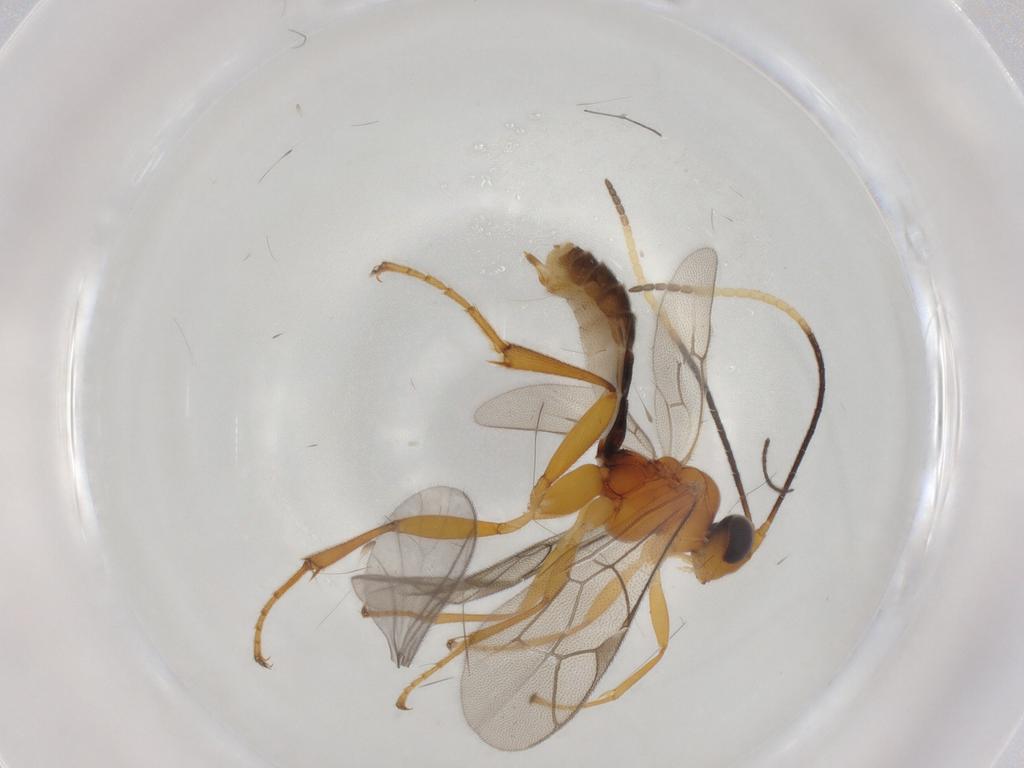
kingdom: Animalia
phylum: Arthropoda
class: Insecta
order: Hymenoptera
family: Ichneumonidae
